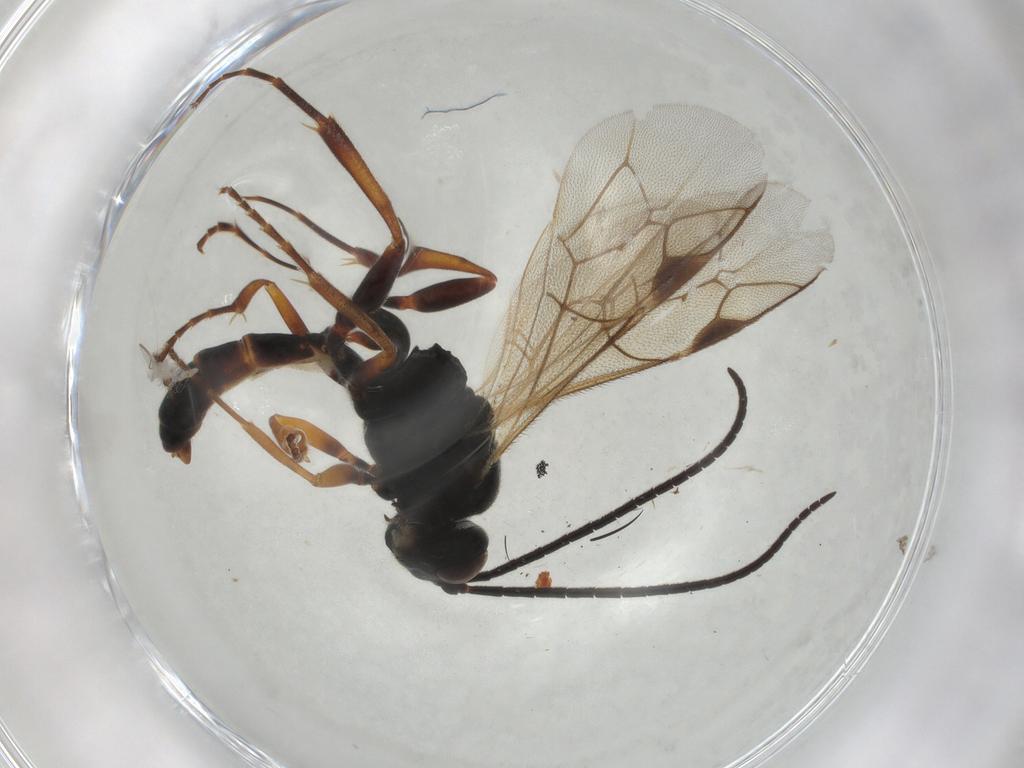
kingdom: Animalia
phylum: Arthropoda
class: Insecta
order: Hymenoptera
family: Ichneumonidae
